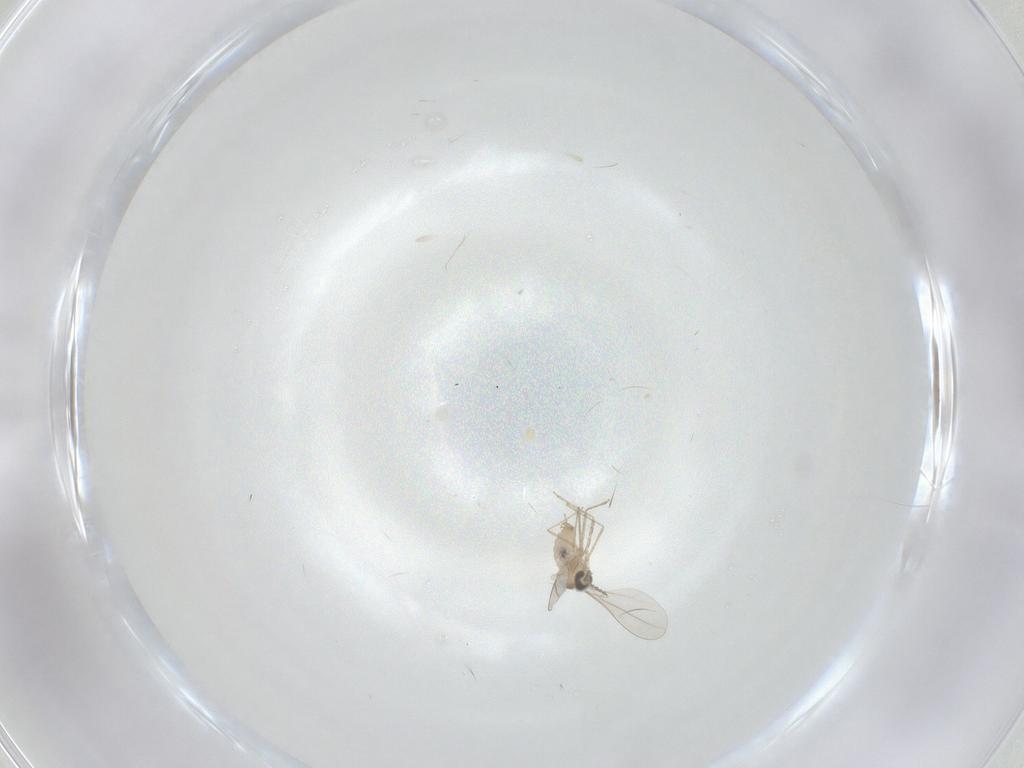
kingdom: Animalia
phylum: Arthropoda
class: Insecta
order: Diptera
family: Cecidomyiidae
